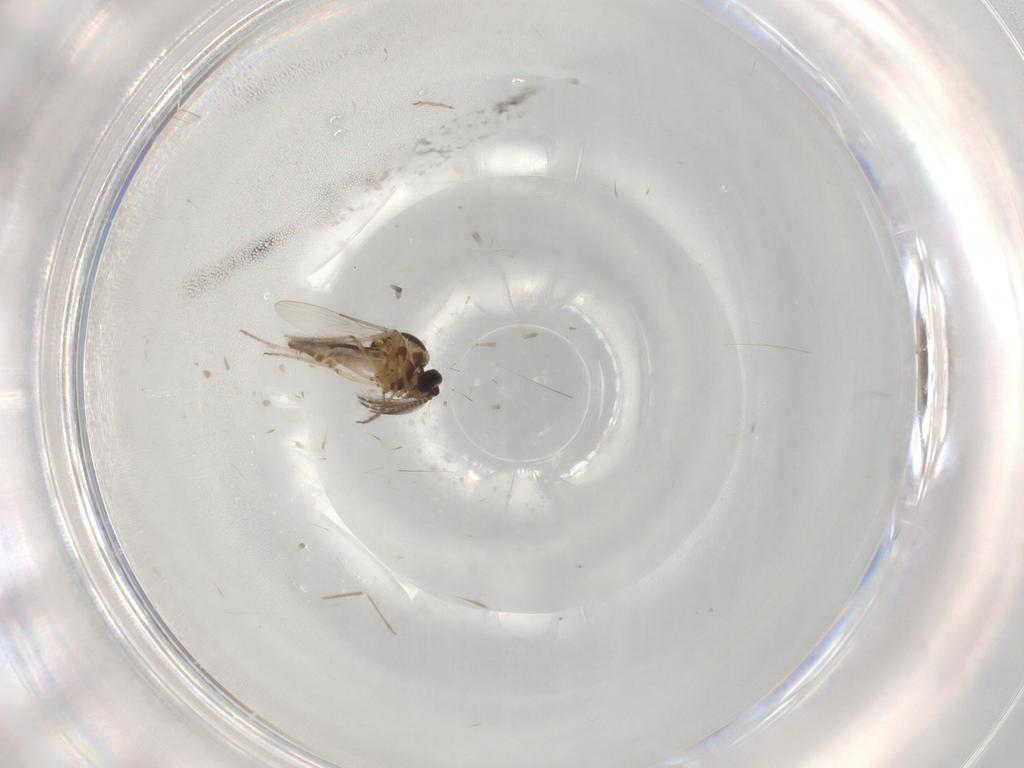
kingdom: Animalia
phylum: Arthropoda
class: Insecta
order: Diptera
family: Ceratopogonidae
